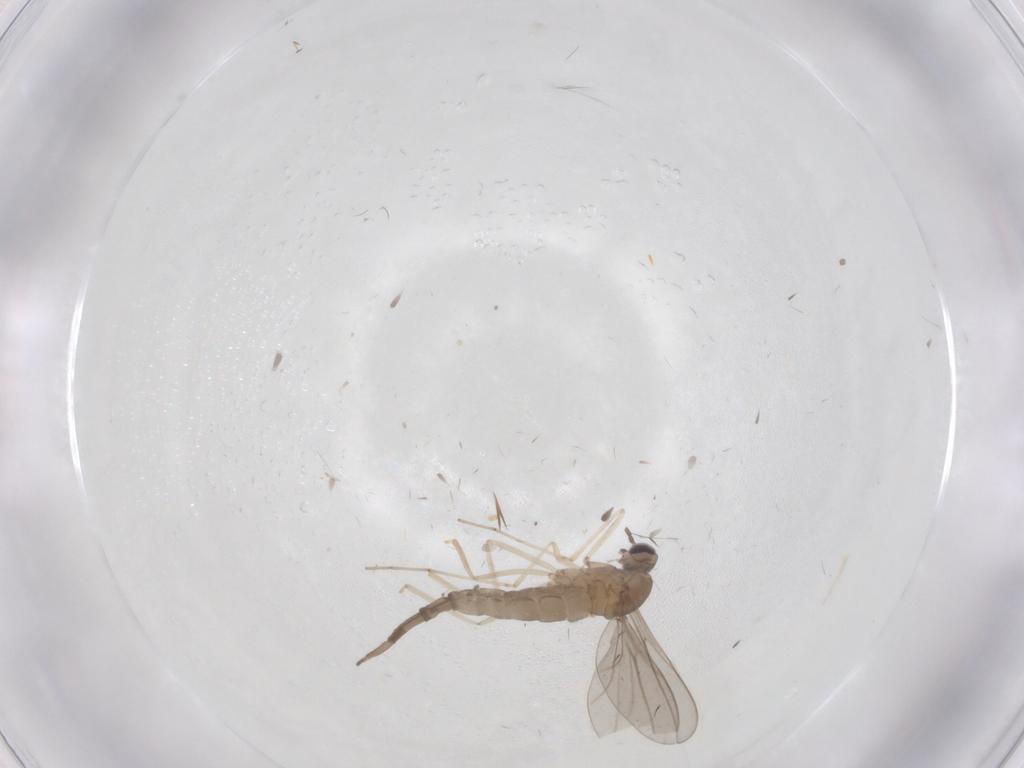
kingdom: Animalia
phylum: Arthropoda
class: Insecta
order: Diptera
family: Cecidomyiidae
